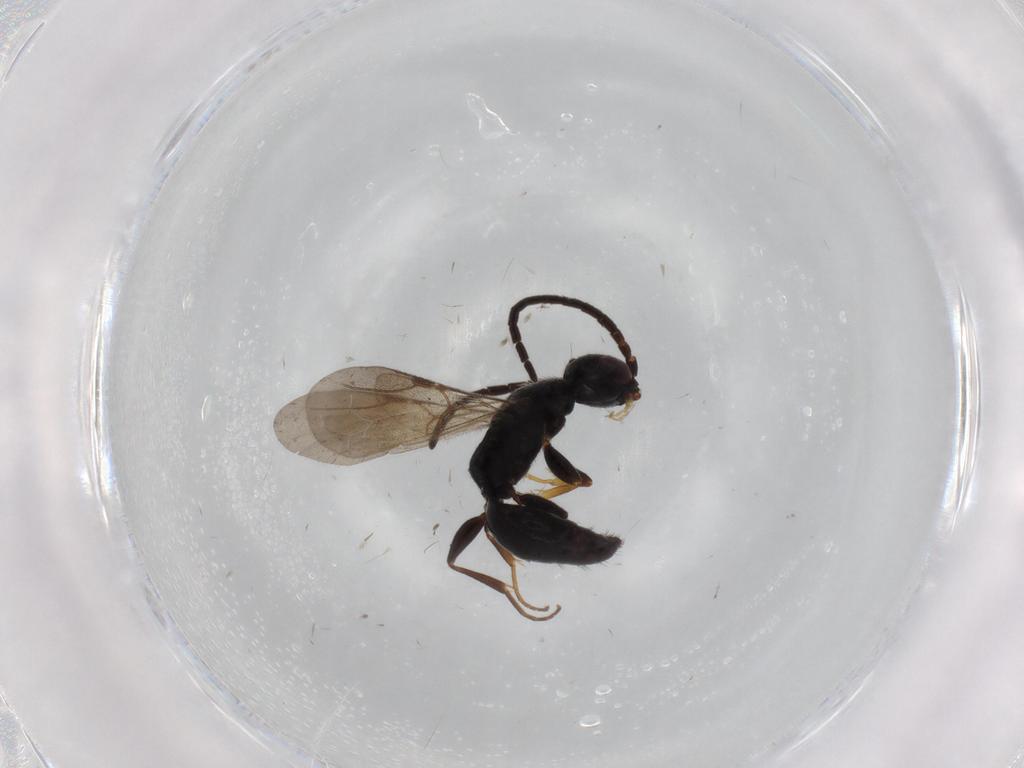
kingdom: Animalia
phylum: Arthropoda
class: Insecta
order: Hymenoptera
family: Bethylidae
